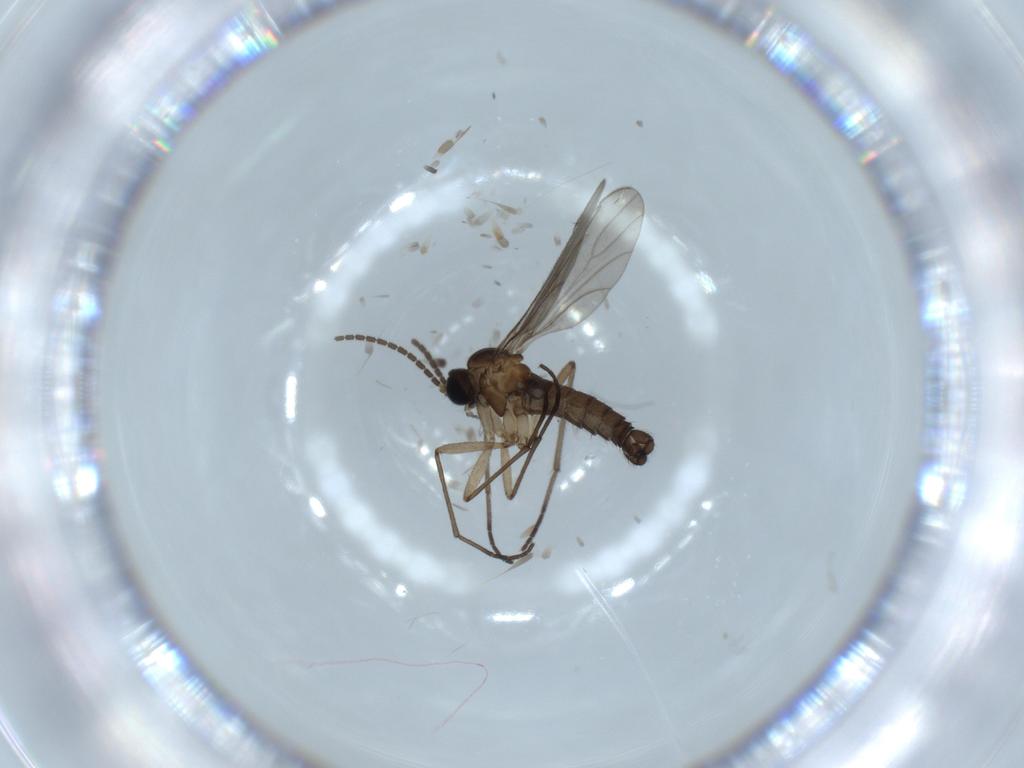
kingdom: Animalia
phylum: Arthropoda
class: Insecta
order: Diptera
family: Sciaridae
